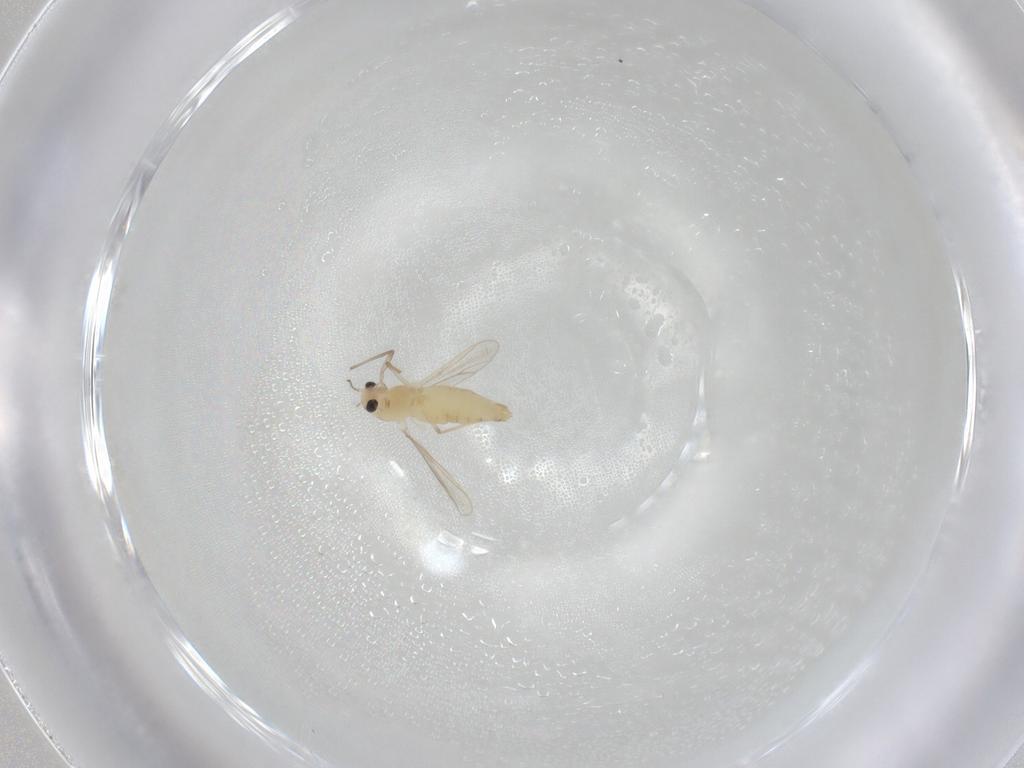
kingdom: Animalia
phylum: Arthropoda
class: Insecta
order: Diptera
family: Chironomidae
